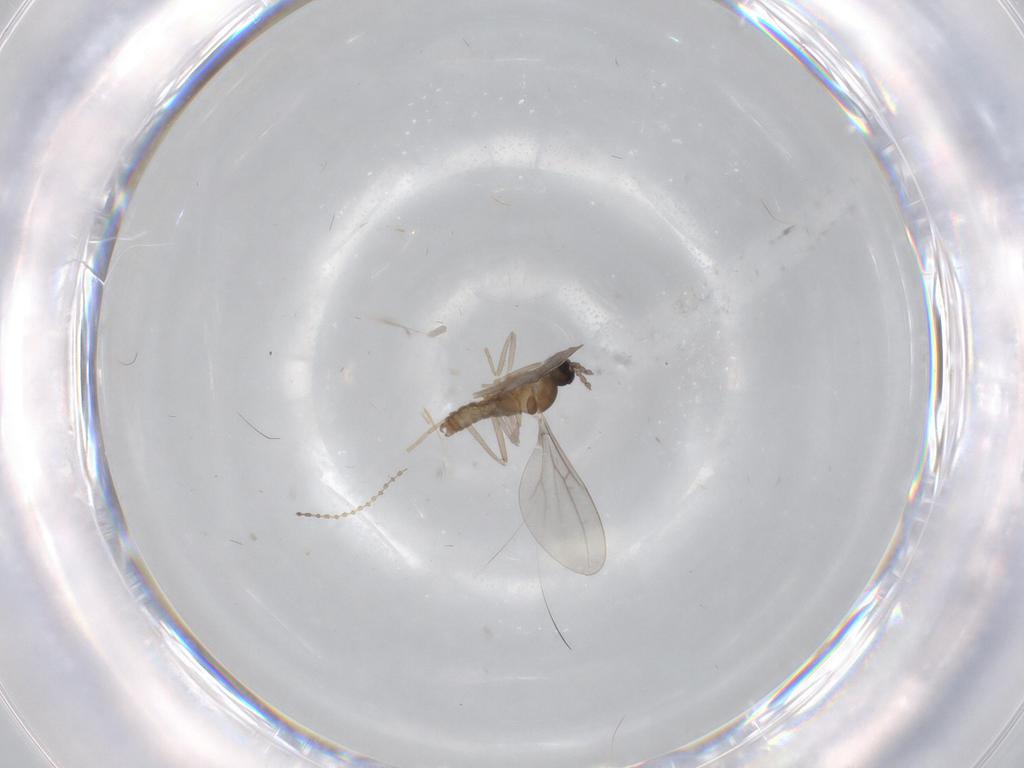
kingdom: Animalia
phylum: Arthropoda
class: Insecta
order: Diptera
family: Cecidomyiidae
